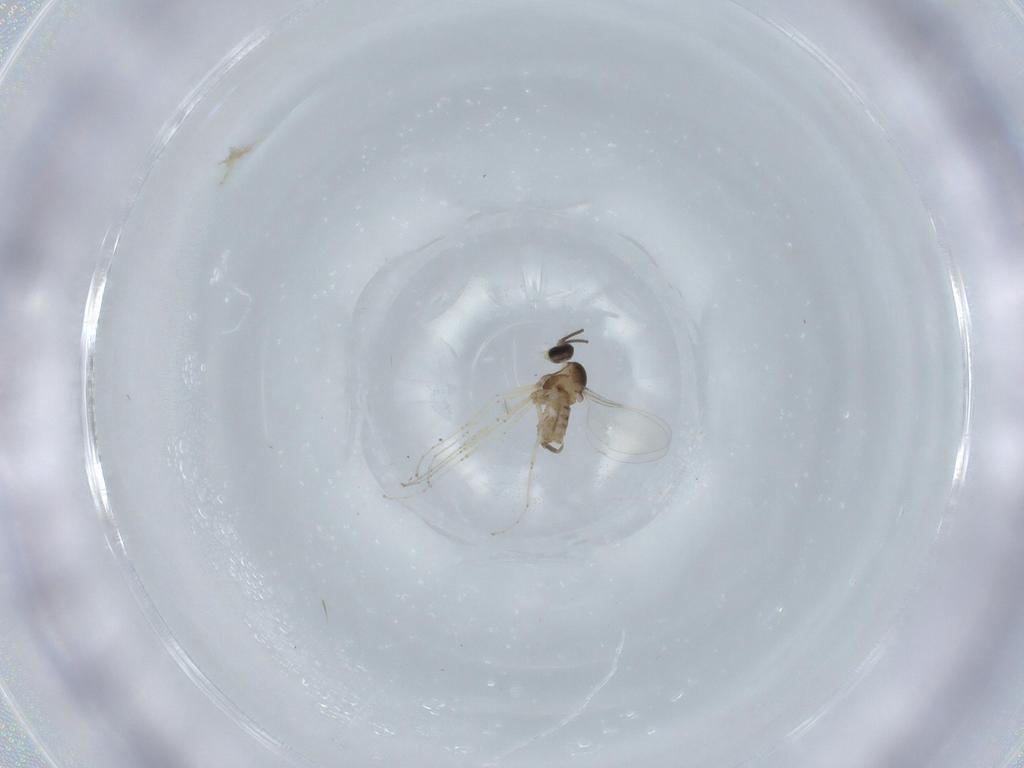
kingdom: Animalia
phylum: Arthropoda
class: Insecta
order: Diptera
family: Cecidomyiidae
